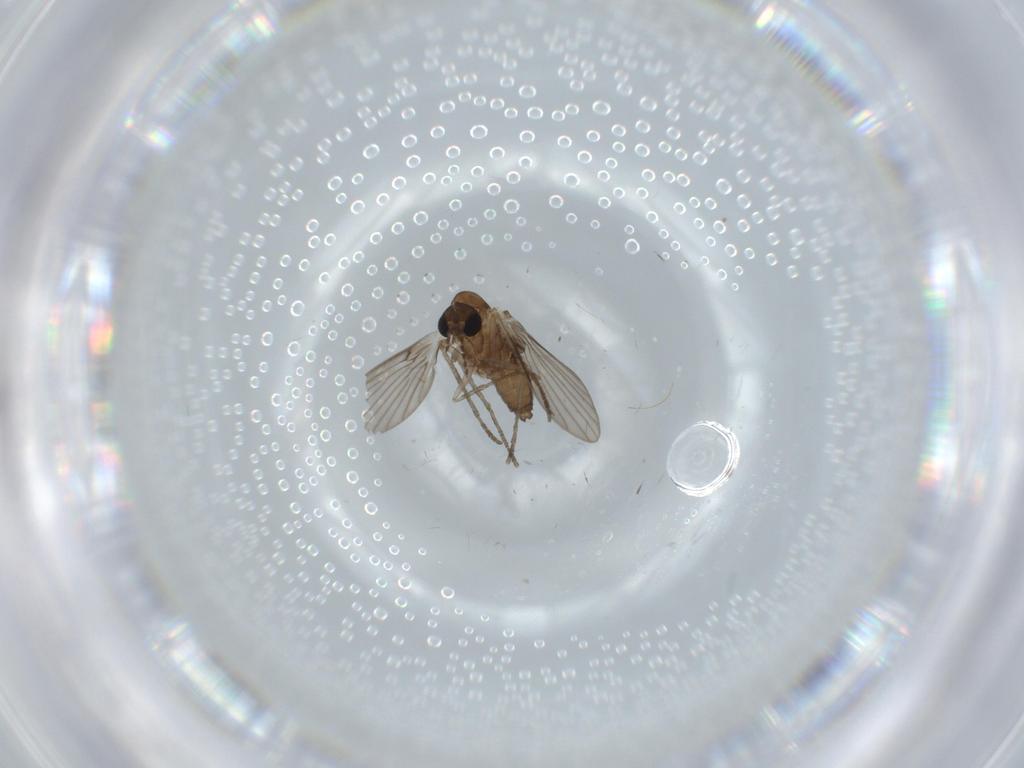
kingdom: Animalia
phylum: Arthropoda
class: Insecta
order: Diptera
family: Psychodidae
